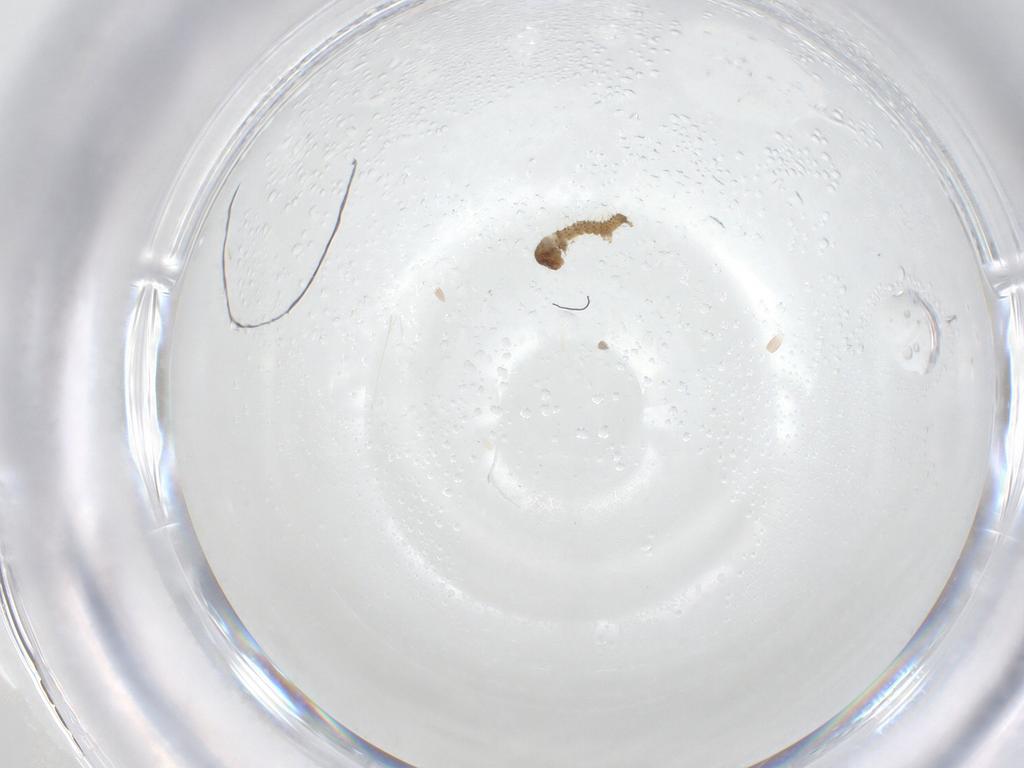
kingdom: Animalia
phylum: Arthropoda
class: Insecta
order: Lepidoptera
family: Erebidae
